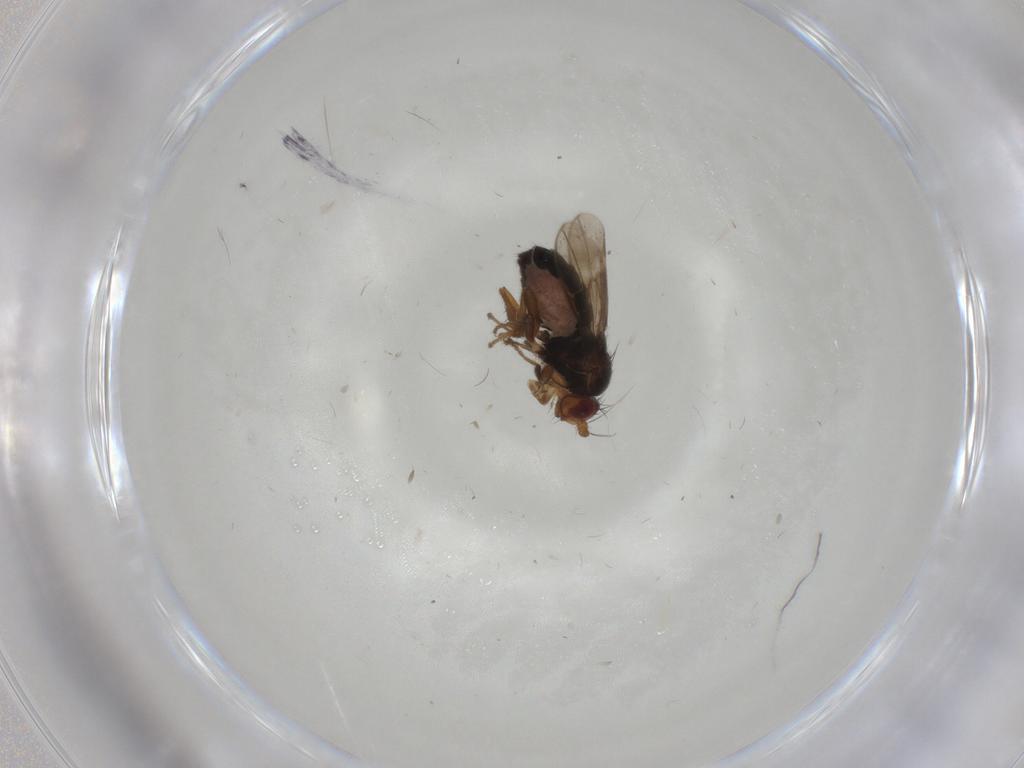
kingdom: Animalia
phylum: Arthropoda
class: Insecta
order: Diptera
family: Sphaeroceridae
